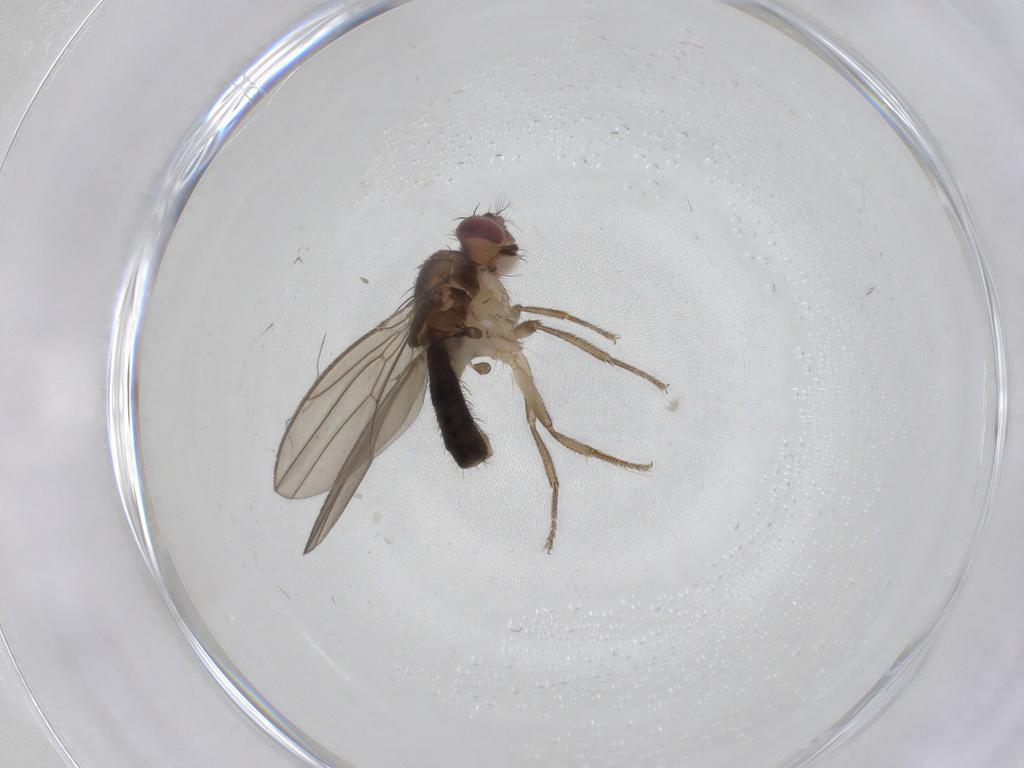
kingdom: Animalia
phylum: Arthropoda
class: Insecta
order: Diptera
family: Drosophilidae
